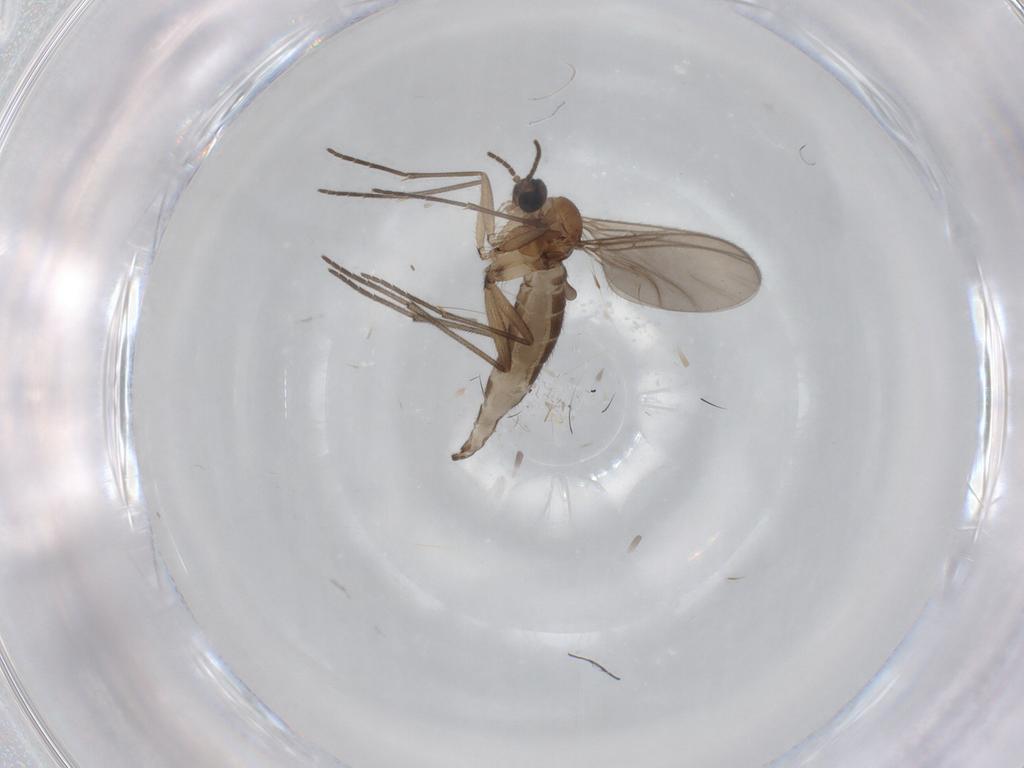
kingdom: Animalia
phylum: Arthropoda
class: Insecta
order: Diptera
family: Sciaridae
